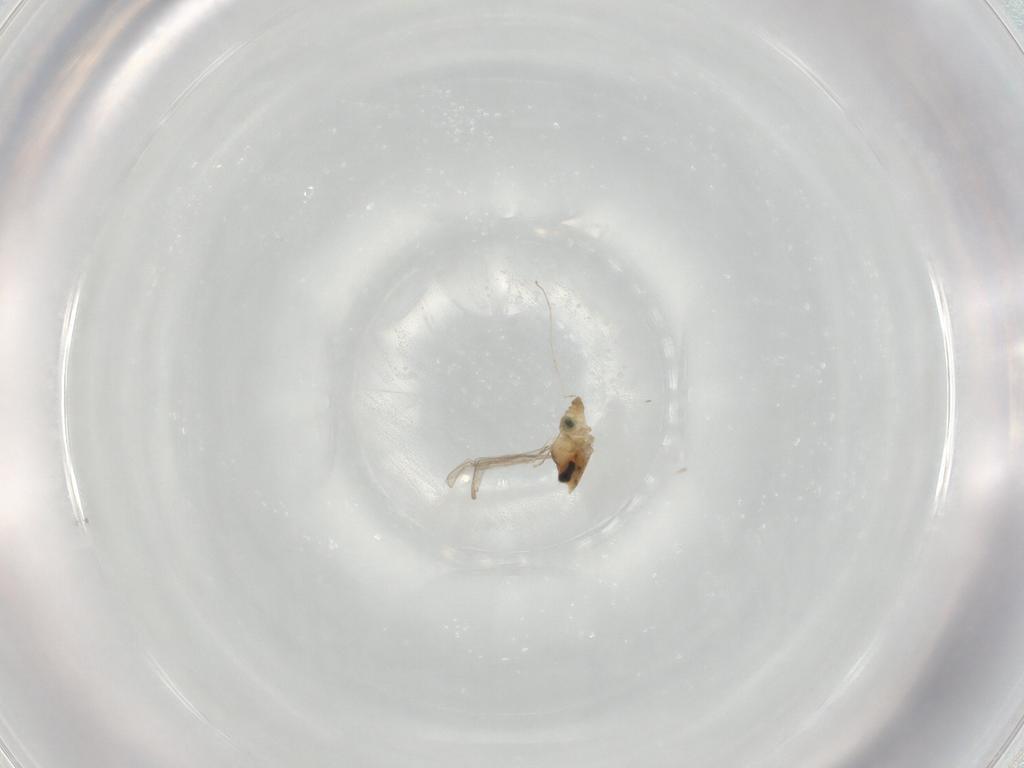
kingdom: Animalia
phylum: Arthropoda
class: Insecta
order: Diptera
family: Cecidomyiidae
